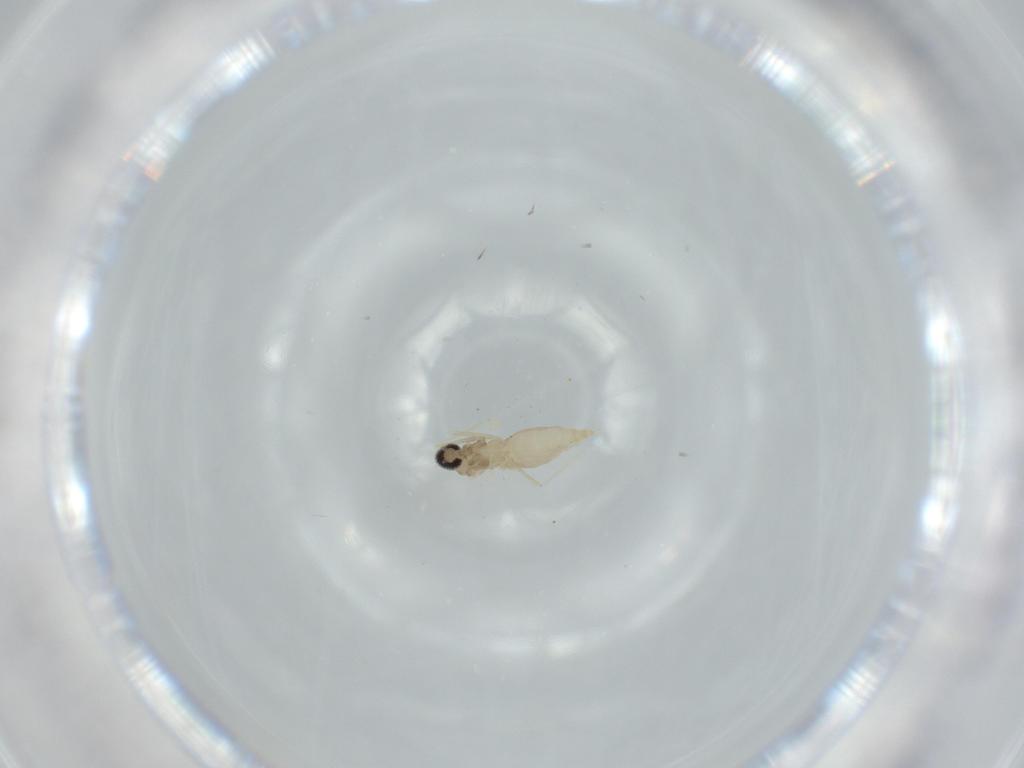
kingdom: Animalia
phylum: Arthropoda
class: Insecta
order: Diptera
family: Cecidomyiidae
